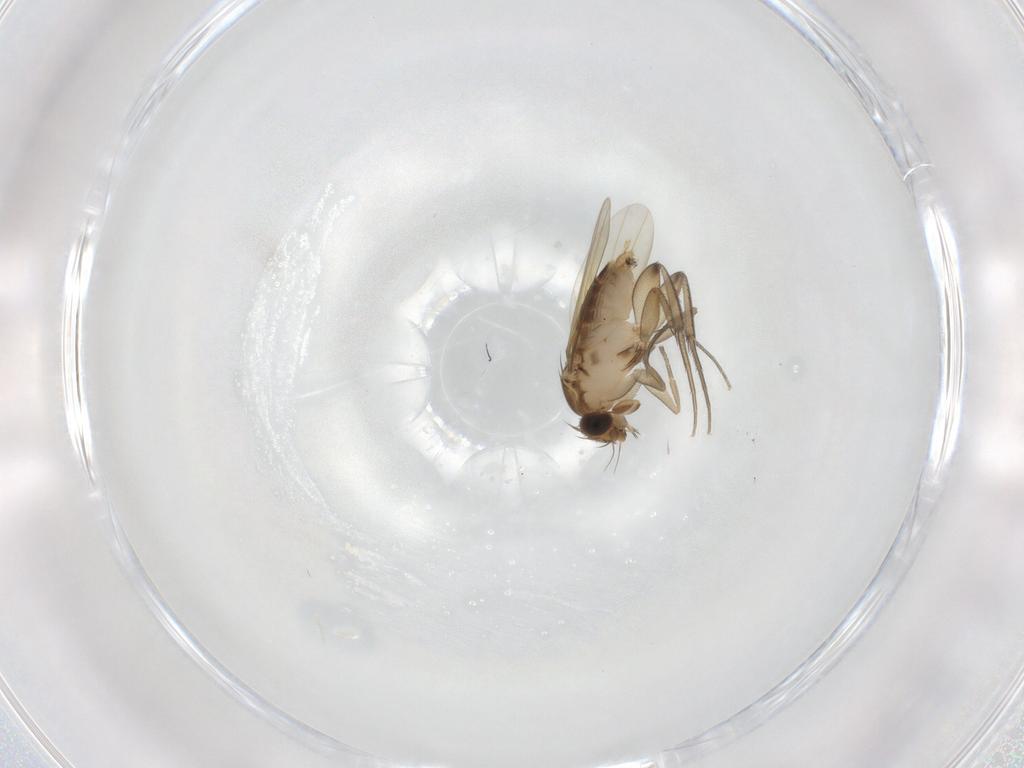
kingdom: Animalia
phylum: Arthropoda
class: Insecta
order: Diptera
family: Phoridae
